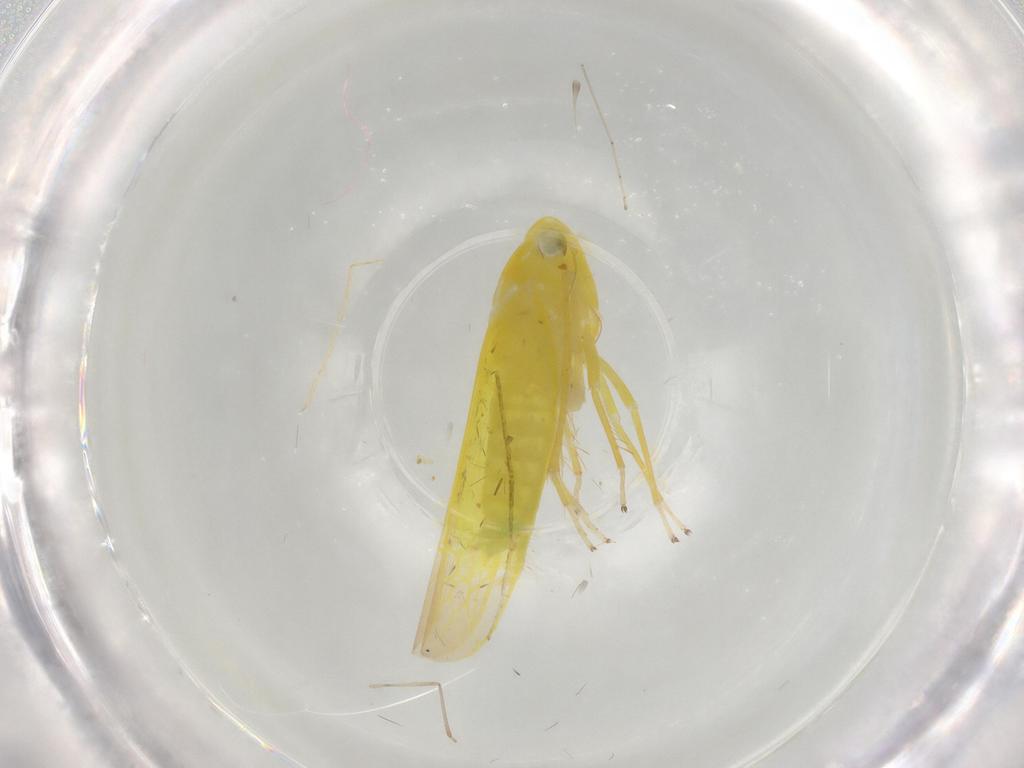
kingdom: Animalia
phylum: Arthropoda
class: Insecta
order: Hemiptera
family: Cicadellidae
